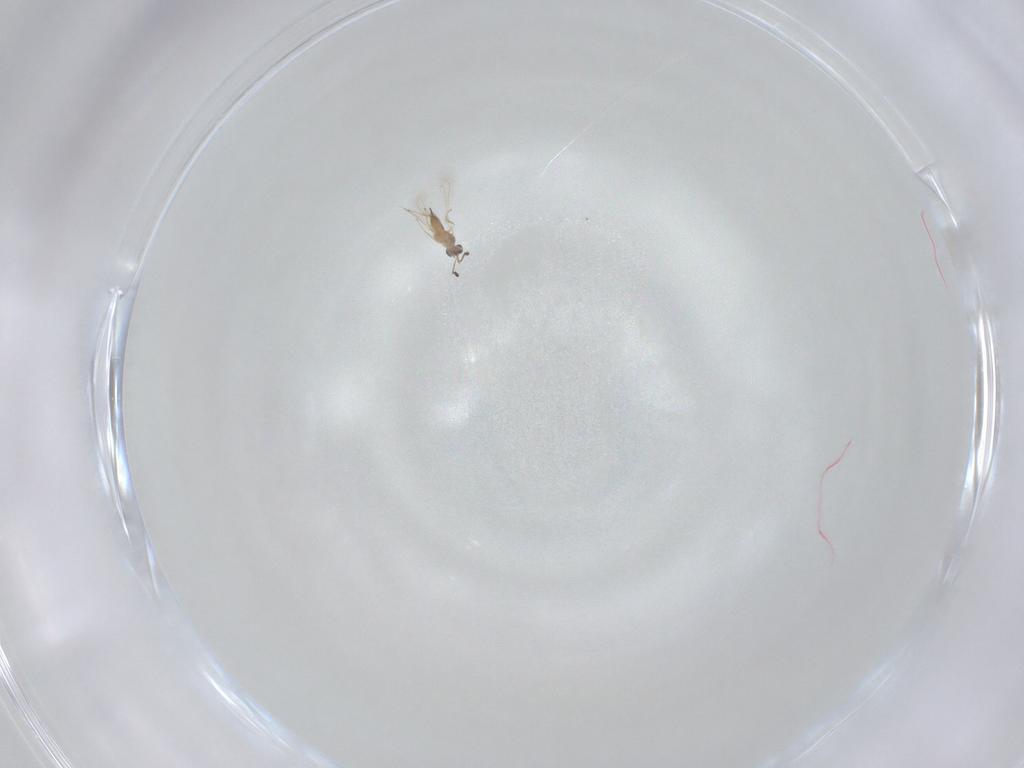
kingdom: Animalia
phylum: Arthropoda
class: Insecta
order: Hymenoptera
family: Mymaridae
